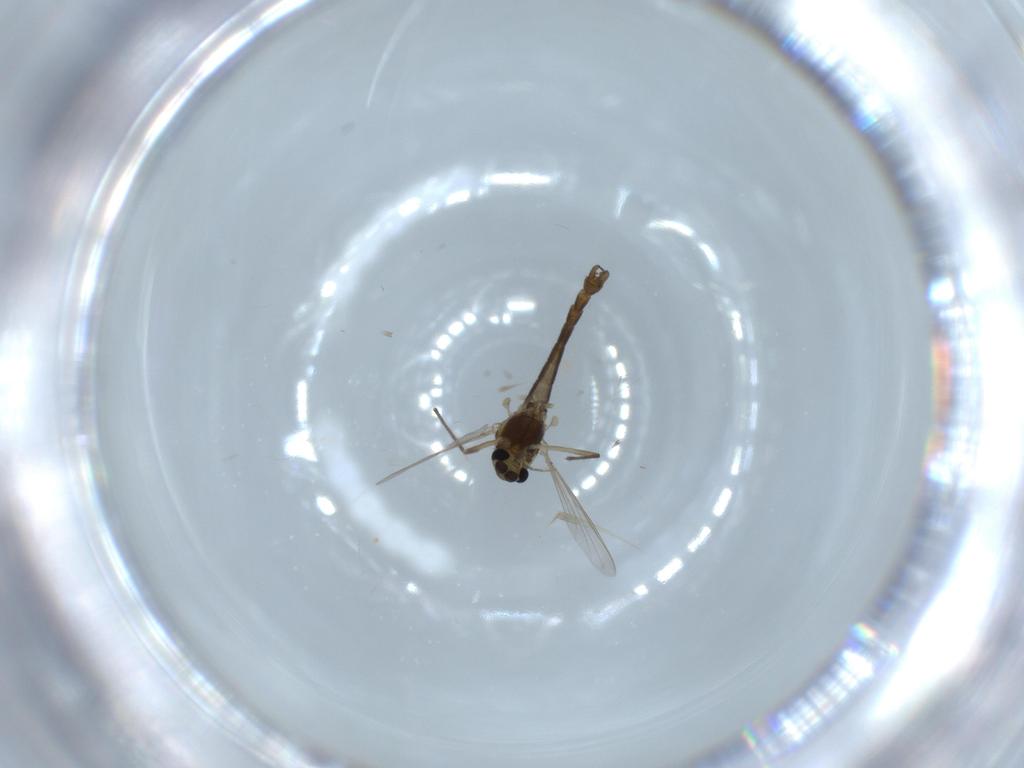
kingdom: Animalia
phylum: Arthropoda
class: Insecta
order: Diptera
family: Chironomidae
